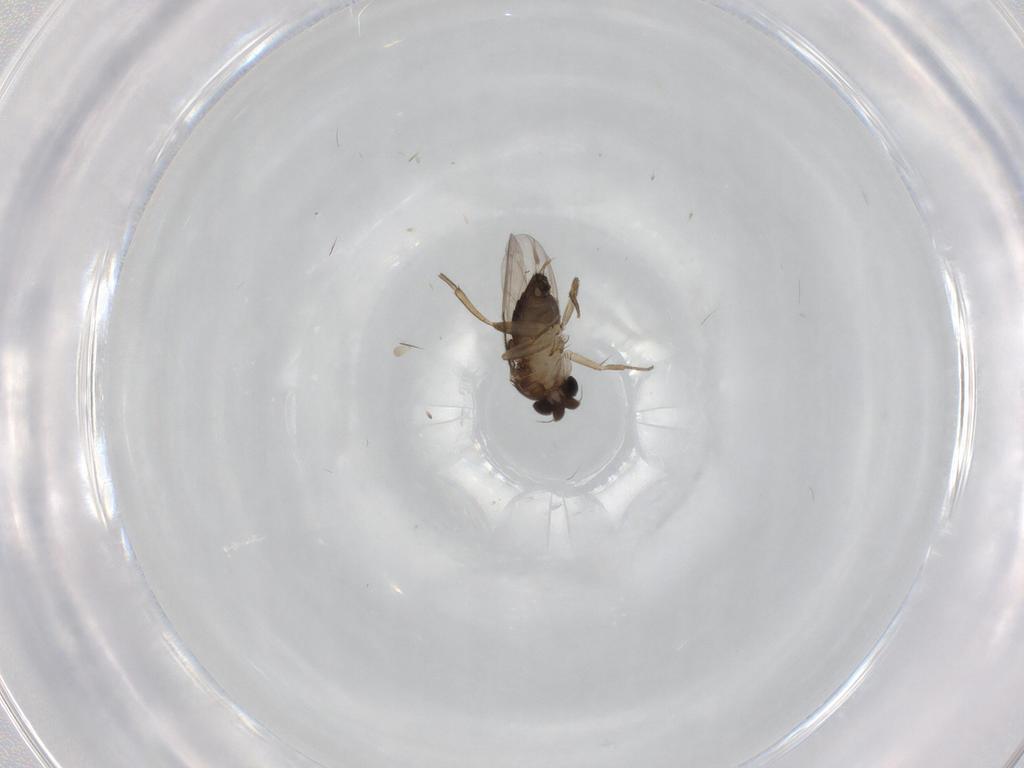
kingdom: Animalia
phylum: Arthropoda
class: Insecta
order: Diptera
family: Phoridae
